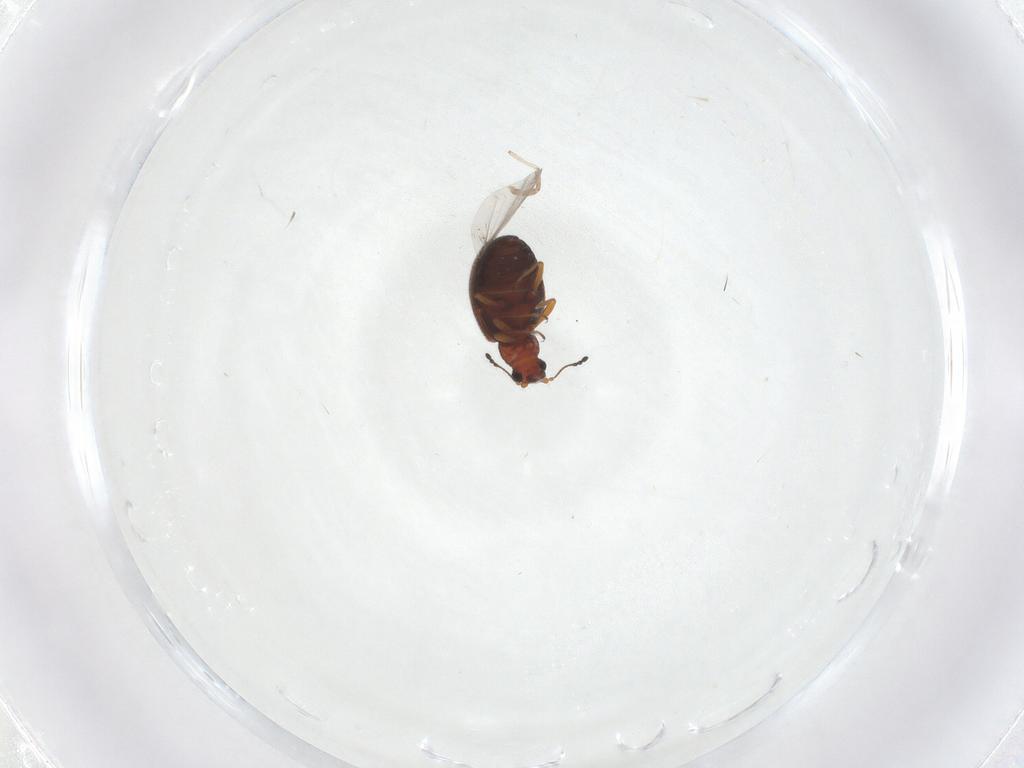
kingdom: Animalia
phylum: Arthropoda
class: Insecta
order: Coleoptera
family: Latridiidae
